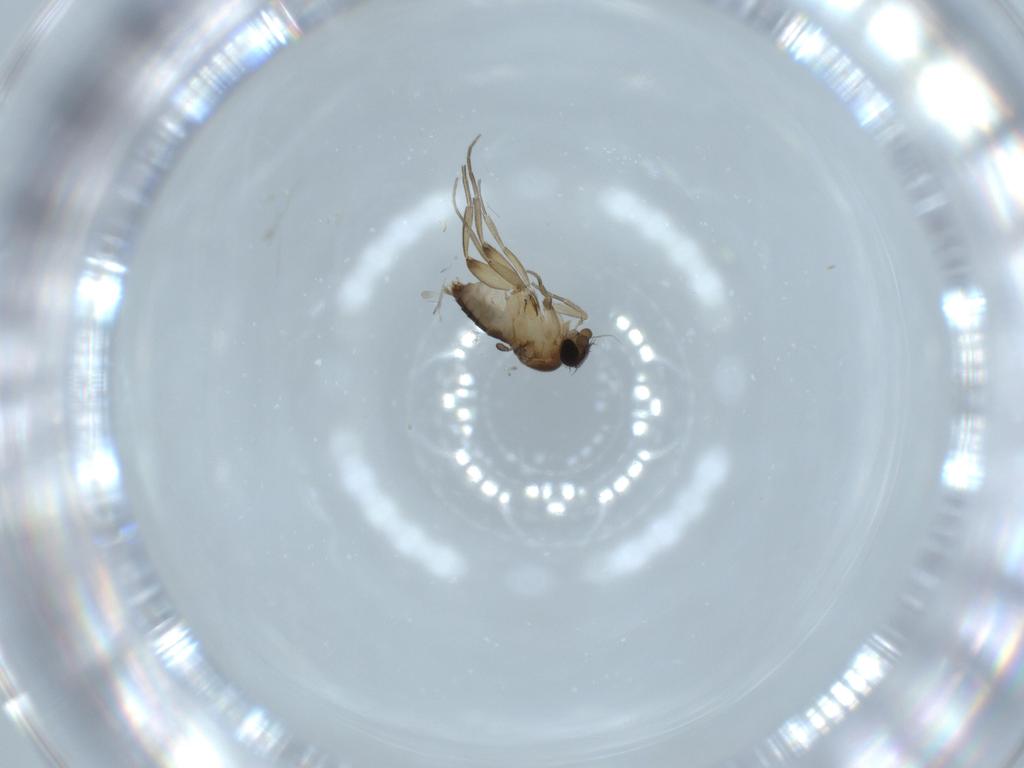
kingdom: Animalia
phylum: Arthropoda
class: Insecta
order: Diptera
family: Phoridae
